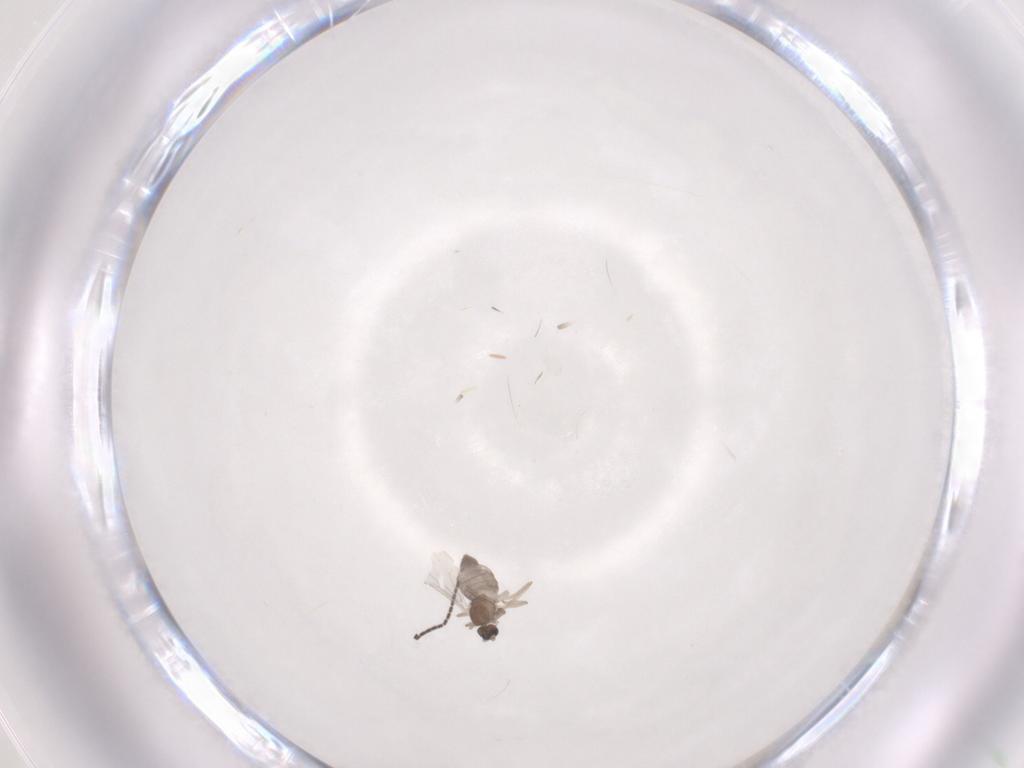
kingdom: Animalia
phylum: Arthropoda
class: Insecta
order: Diptera
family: Cecidomyiidae
